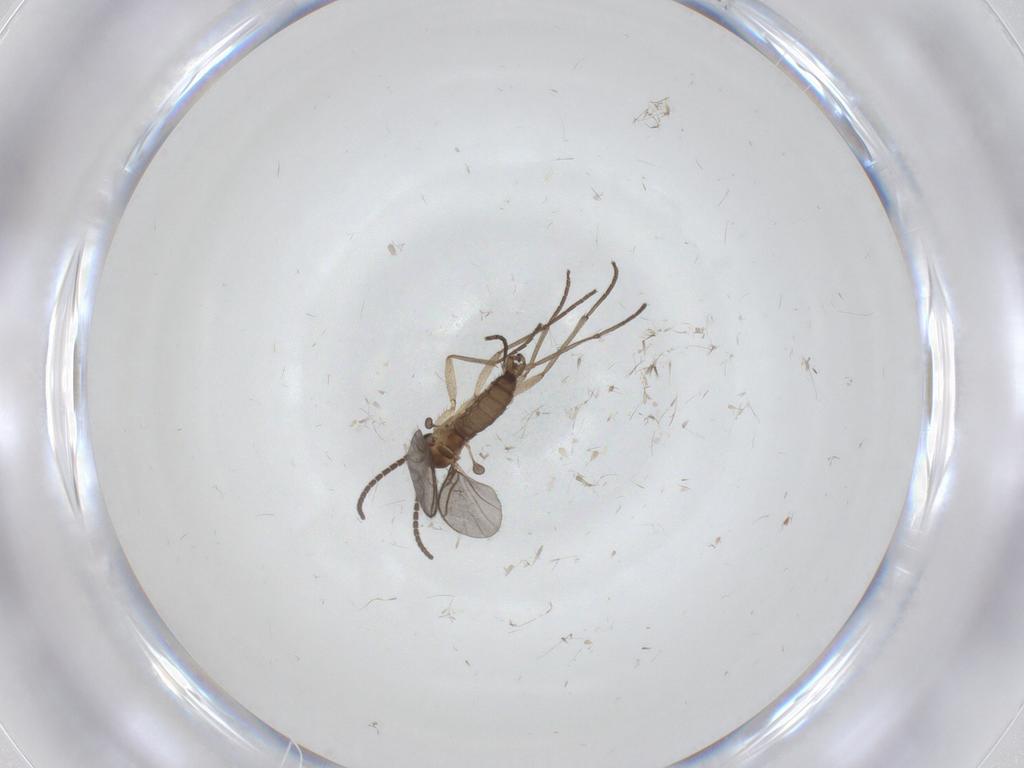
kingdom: Animalia
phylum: Arthropoda
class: Insecta
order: Diptera
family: Sciaridae
